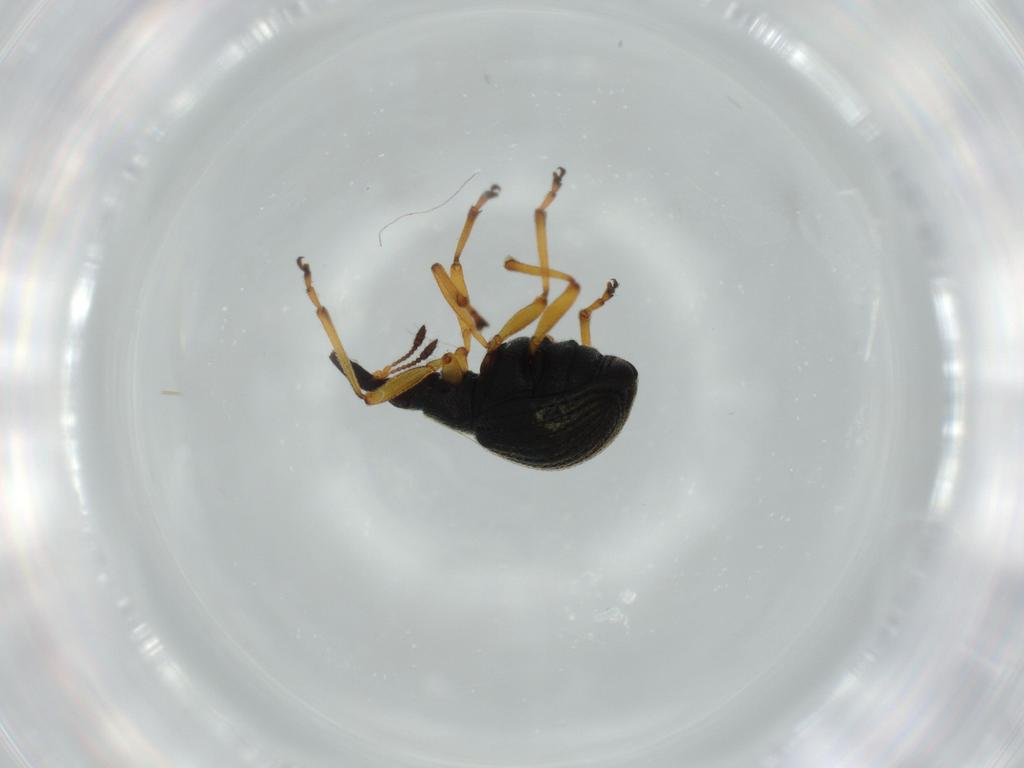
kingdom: Animalia
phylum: Arthropoda
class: Insecta
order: Coleoptera
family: Brentidae
